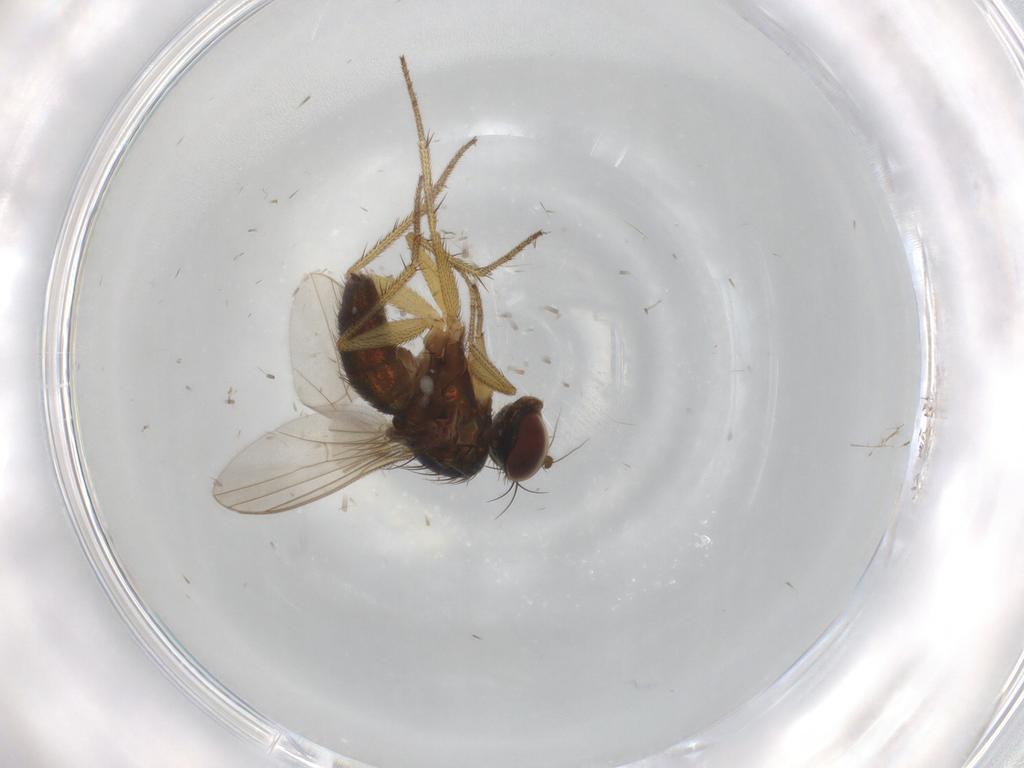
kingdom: Animalia
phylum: Arthropoda
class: Insecta
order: Diptera
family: Dolichopodidae
